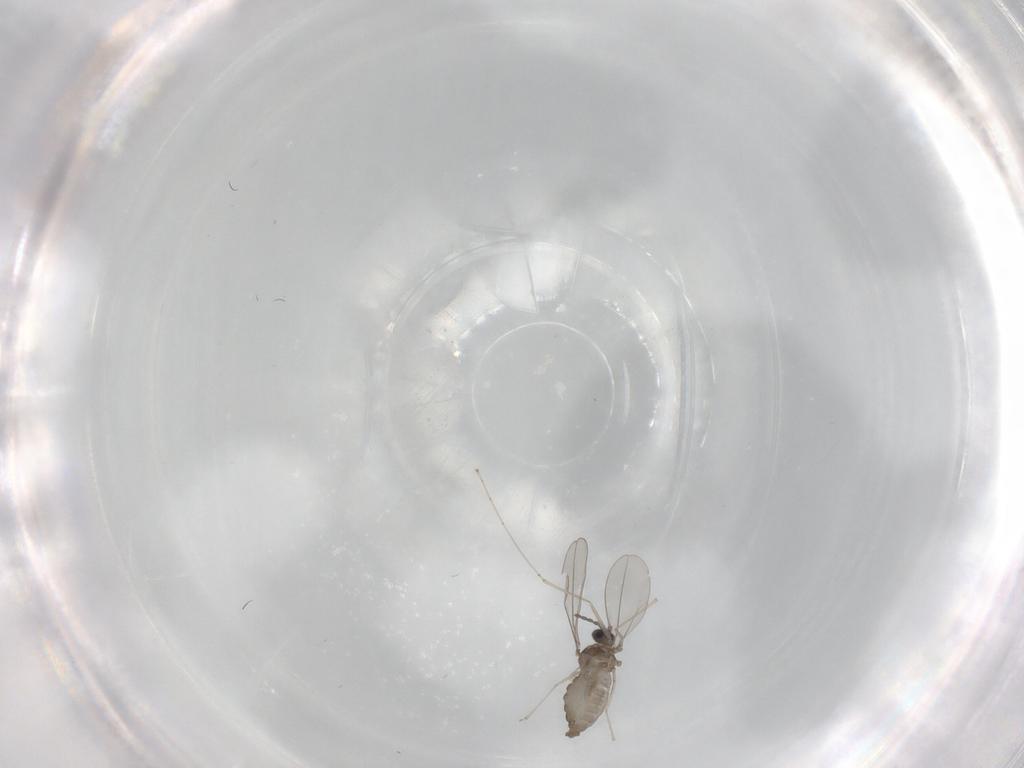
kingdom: Animalia
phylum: Arthropoda
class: Insecta
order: Diptera
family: Cecidomyiidae
